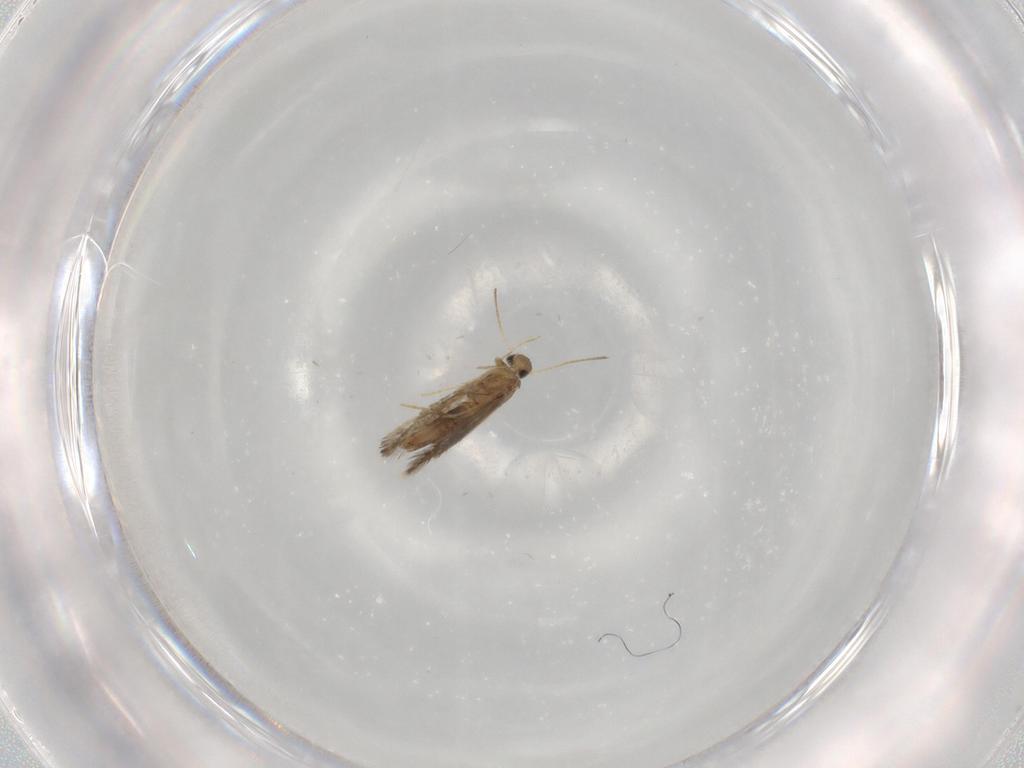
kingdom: Animalia
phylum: Arthropoda
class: Insecta
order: Lepidoptera
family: Heliozelidae
